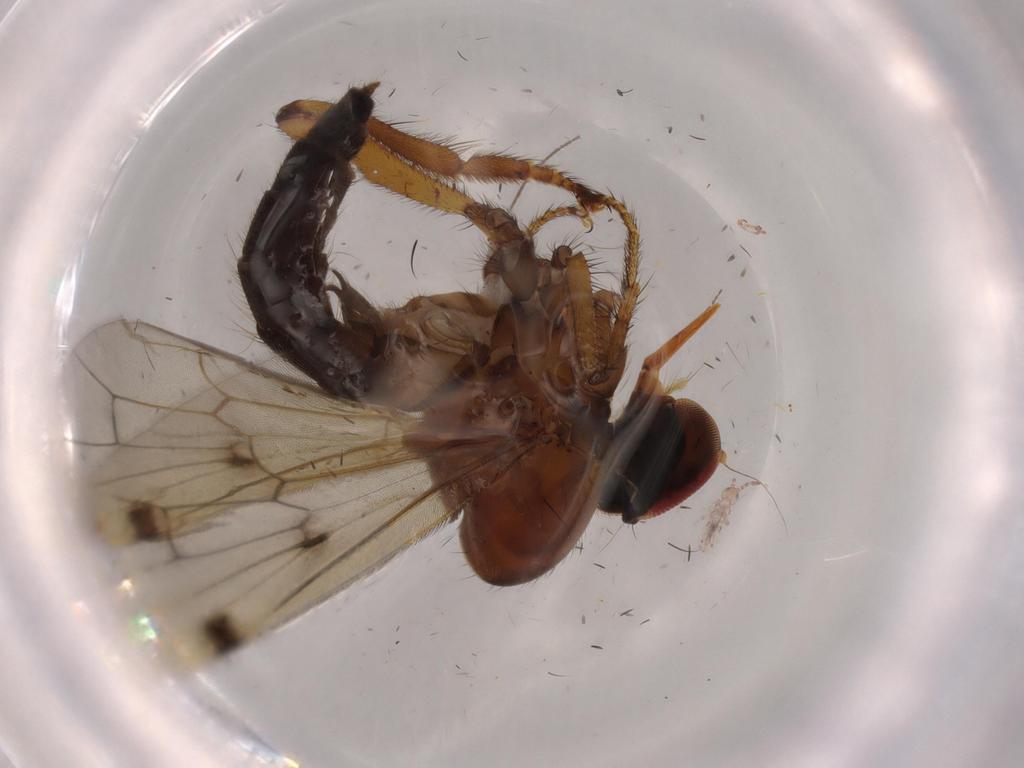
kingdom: Animalia
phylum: Arthropoda
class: Insecta
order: Diptera
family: Hybotidae
